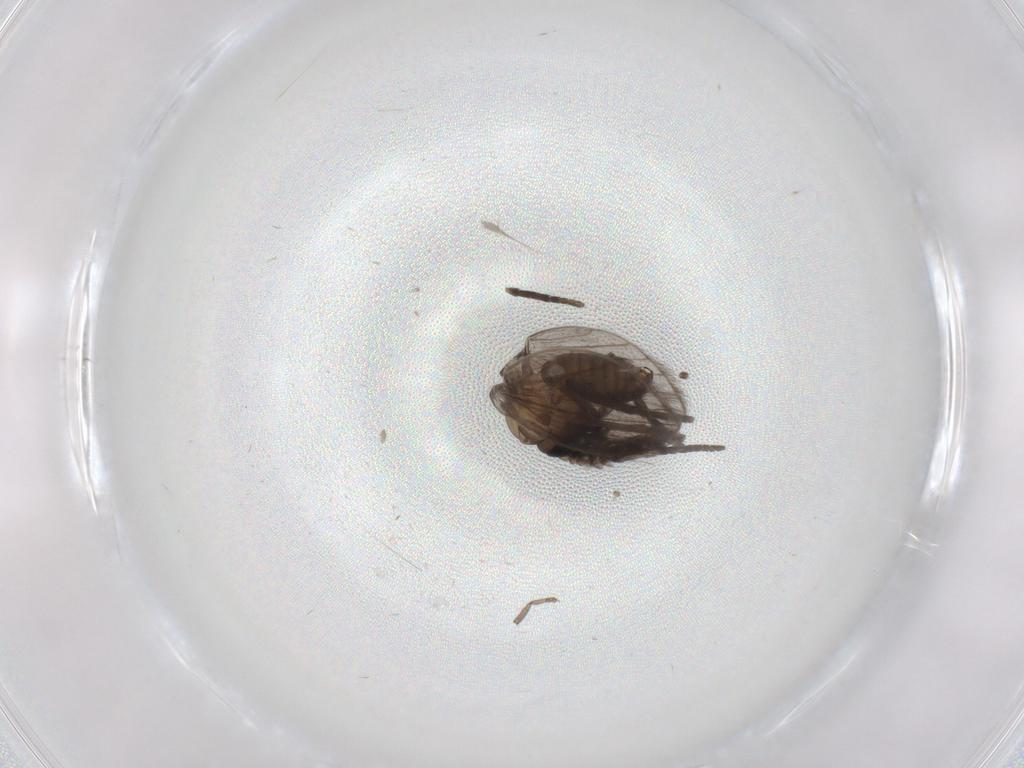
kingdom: Animalia
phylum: Arthropoda
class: Insecta
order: Diptera
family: Psychodidae
